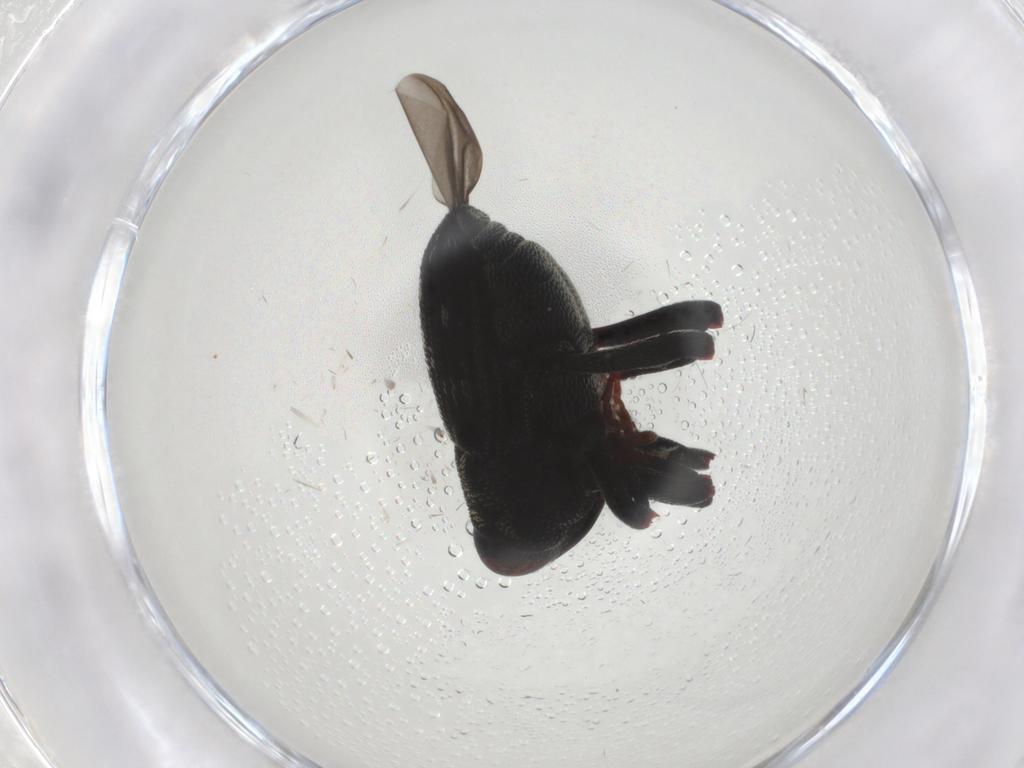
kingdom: Animalia
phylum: Arthropoda
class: Insecta
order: Coleoptera
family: Curculionidae
